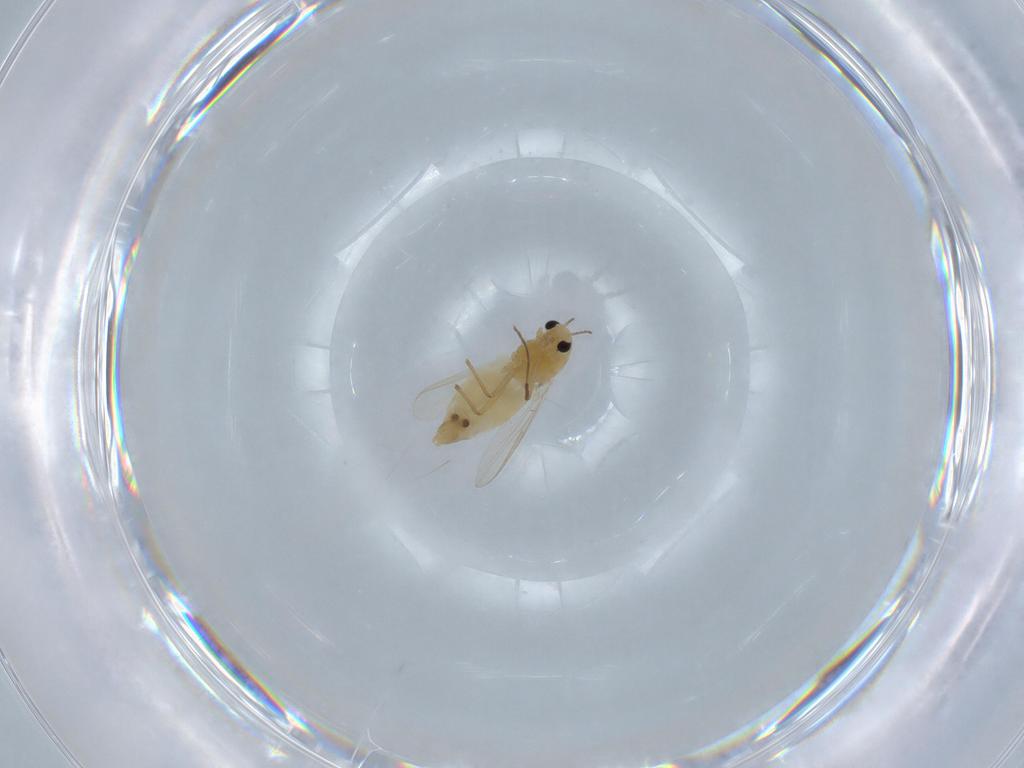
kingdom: Animalia
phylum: Arthropoda
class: Insecta
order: Diptera
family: Chironomidae
